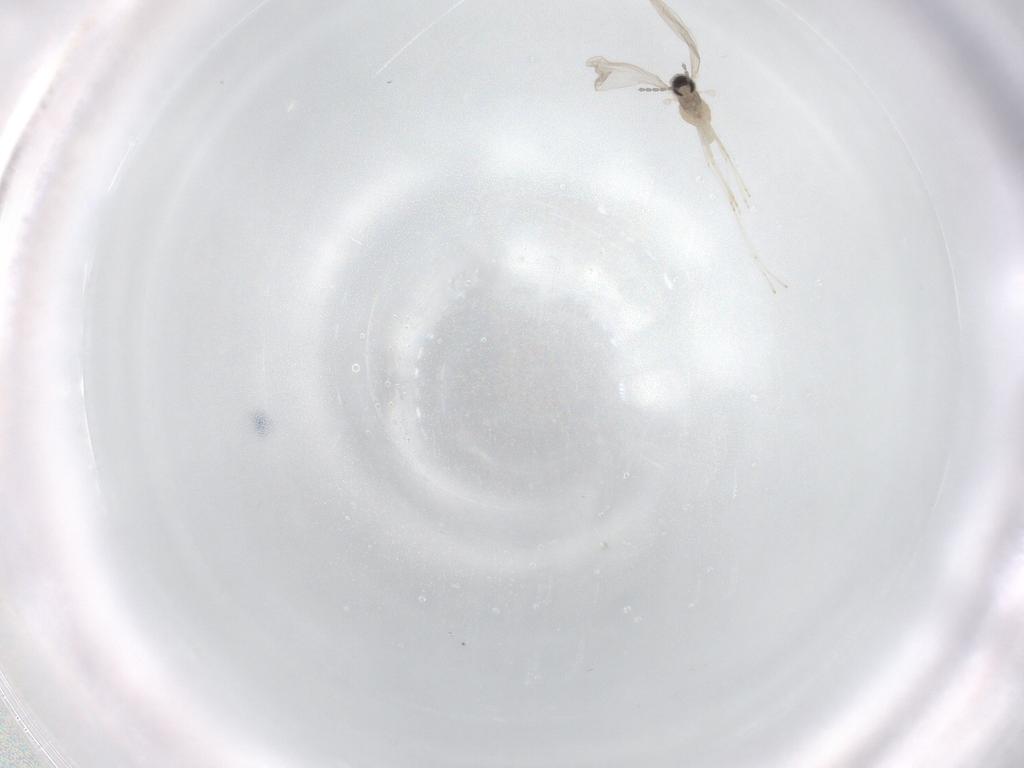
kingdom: Animalia
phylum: Arthropoda
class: Insecta
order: Diptera
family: Cecidomyiidae
